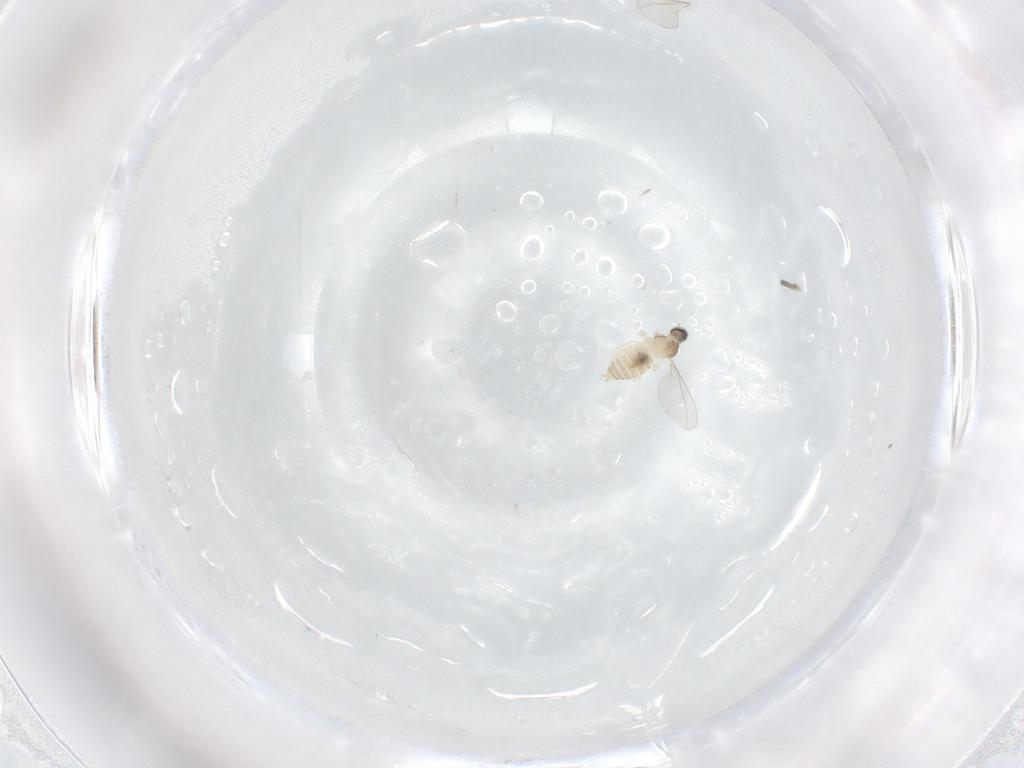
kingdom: Animalia
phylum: Arthropoda
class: Insecta
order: Diptera
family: Cecidomyiidae
